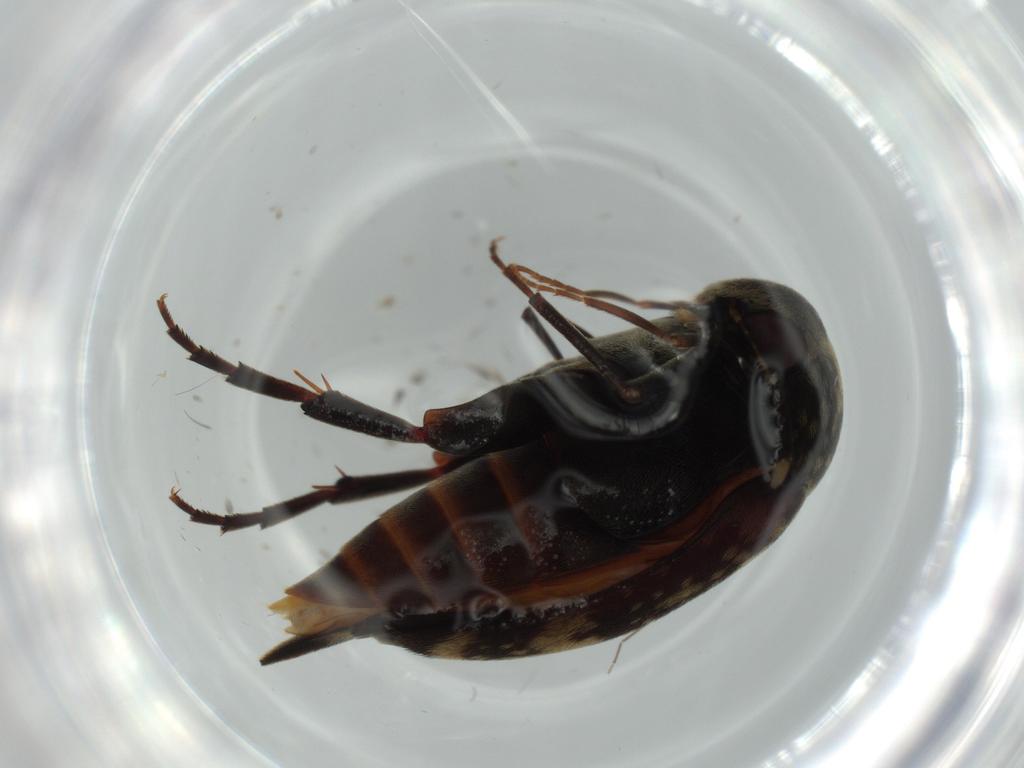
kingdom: Animalia
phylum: Arthropoda
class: Insecta
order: Coleoptera
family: Mordellidae
